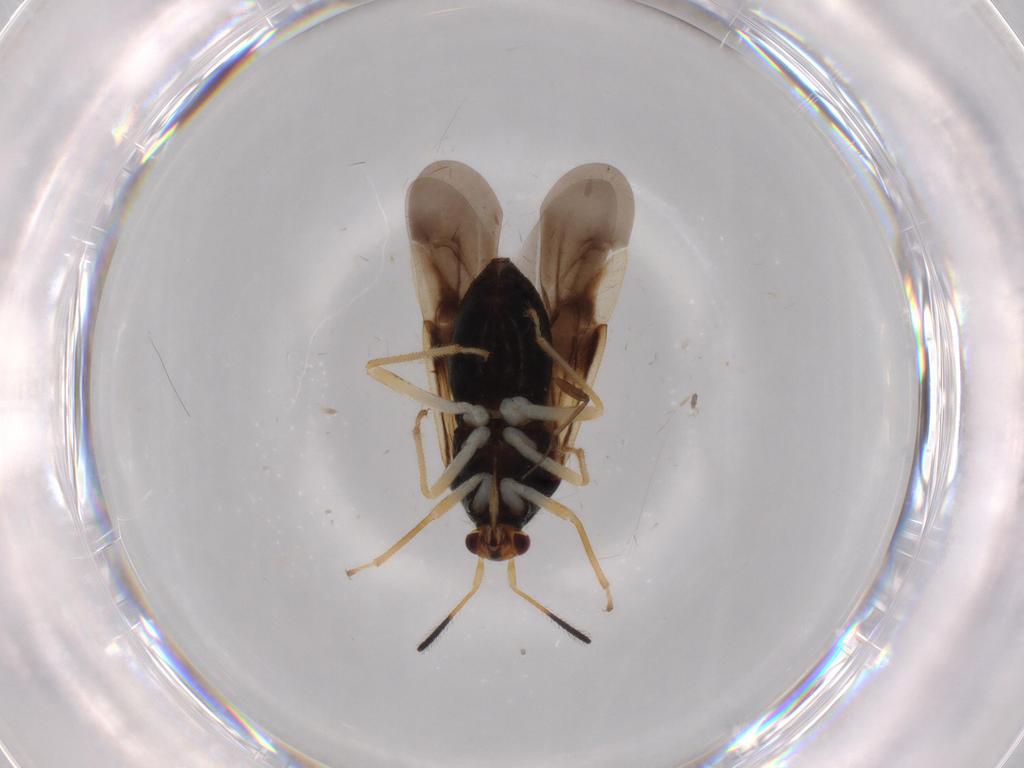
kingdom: Animalia
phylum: Arthropoda
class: Insecta
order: Hemiptera
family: Miridae
